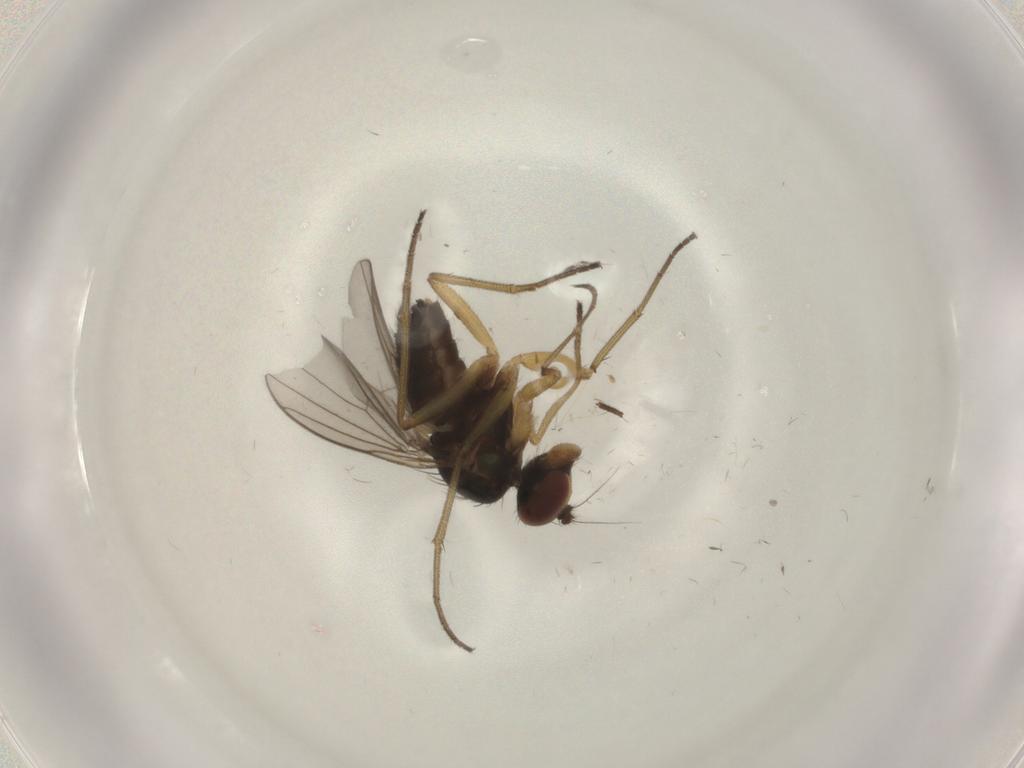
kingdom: Animalia
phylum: Arthropoda
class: Insecta
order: Diptera
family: Dolichopodidae
